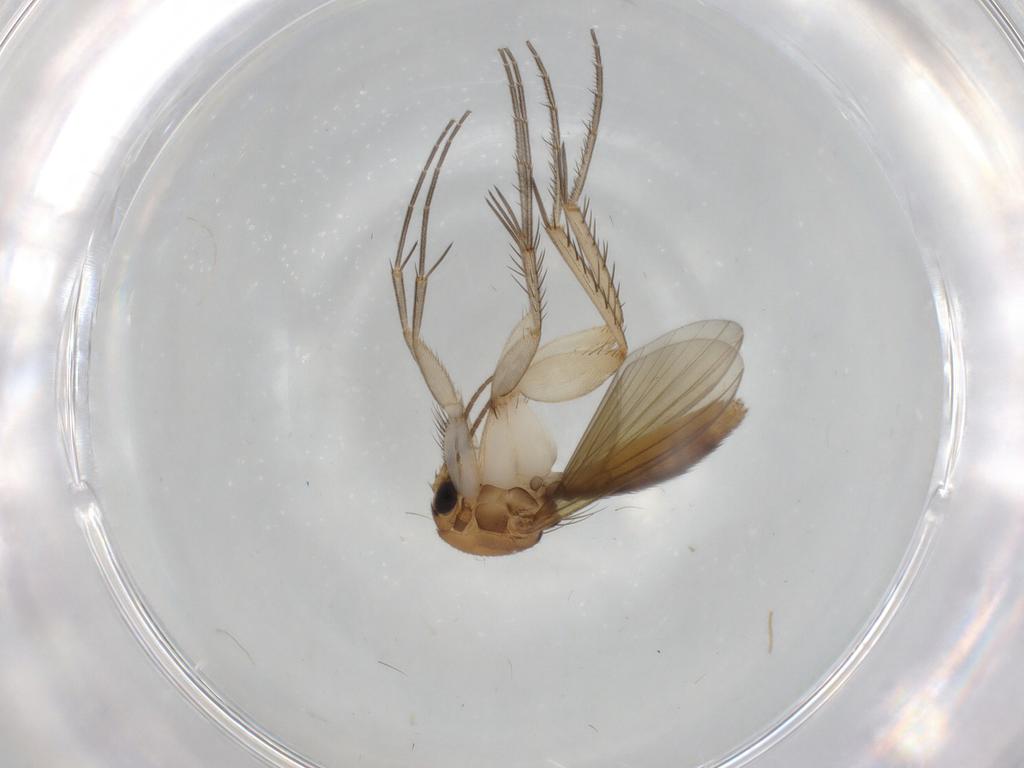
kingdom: Animalia
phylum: Arthropoda
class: Insecta
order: Diptera
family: Mycetophilidae
